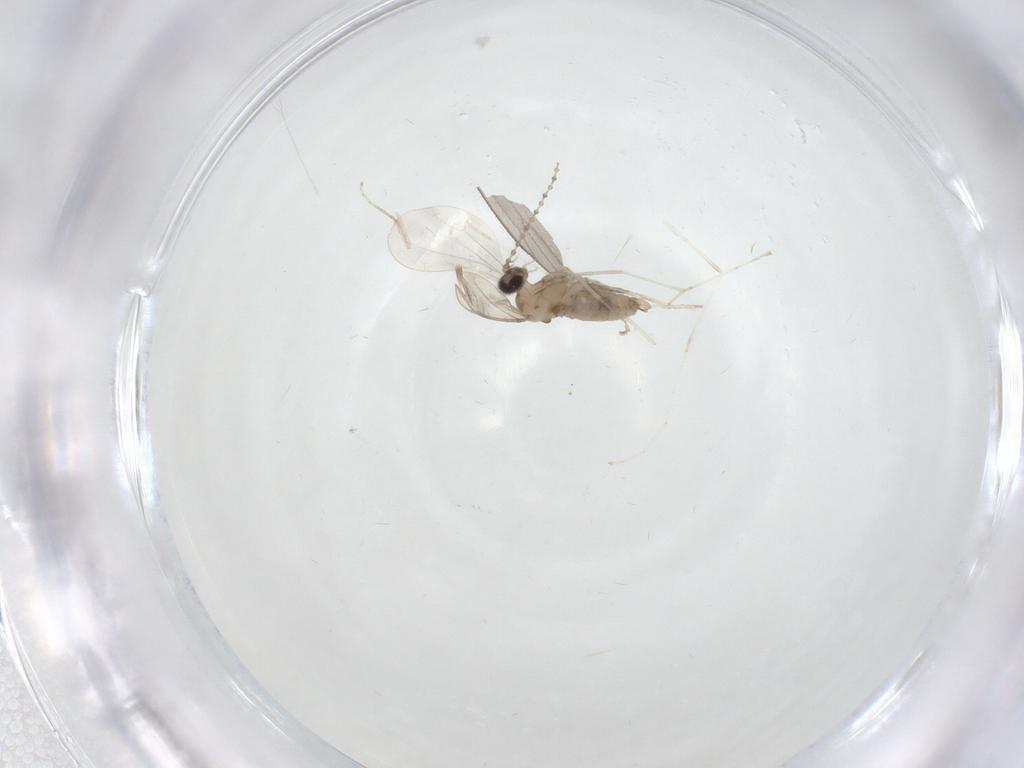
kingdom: Animalia
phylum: Arthropoda
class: Insecta
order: Diptera
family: Cecidomyiidae
